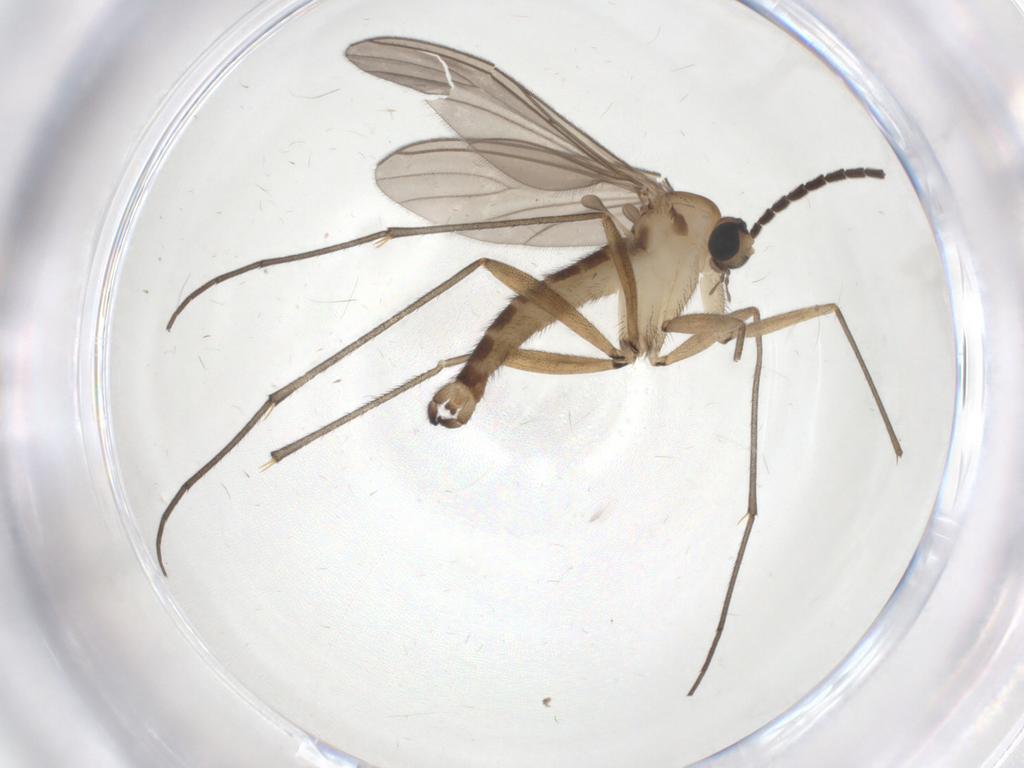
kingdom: Animalia
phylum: Arthropoda
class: Insecta
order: Diptera
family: Sciaridae
